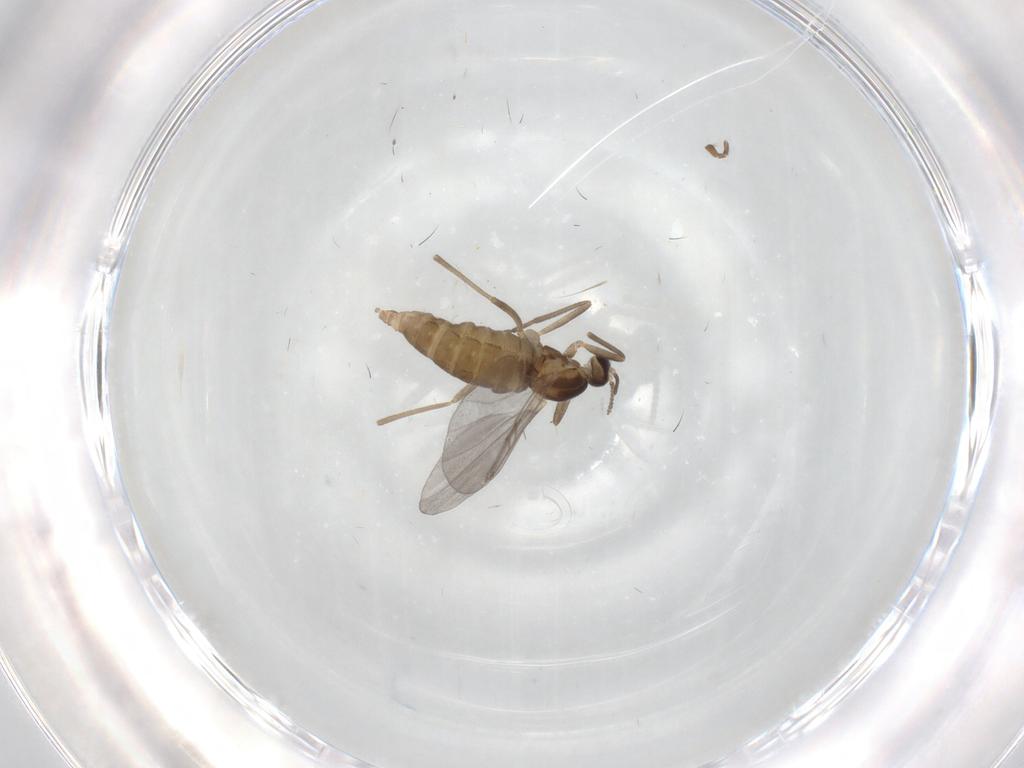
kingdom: Animalia
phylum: Arthropoda
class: Insecta
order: Diptera
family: Cecidomyiidae
